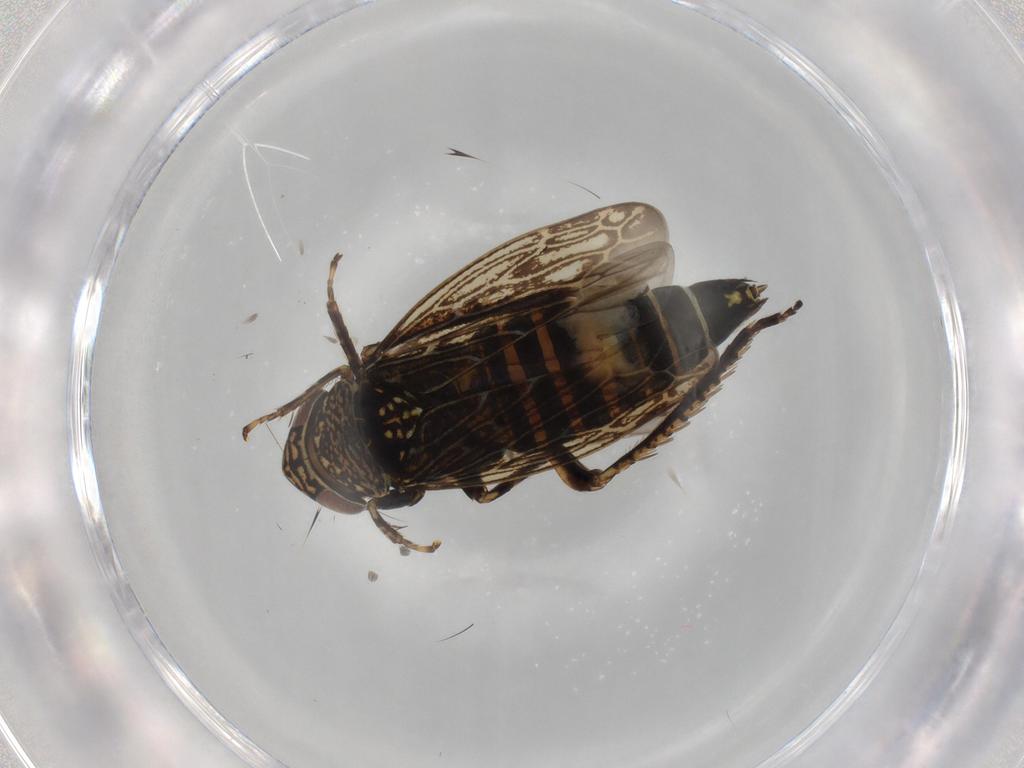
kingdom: Animalia
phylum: Arthropoda
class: Insecta
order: Hemiptera
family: Cicadellidae
